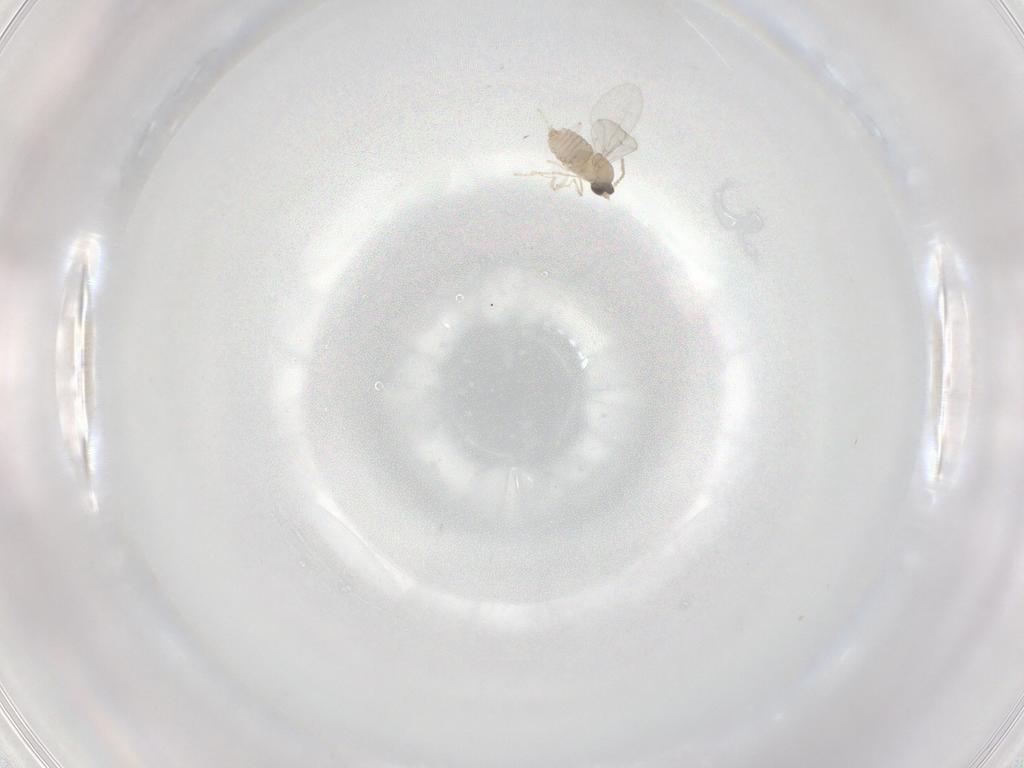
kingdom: Animalia
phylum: Arthropoda
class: Insecta
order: Diptera
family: Cecidomyiidae
